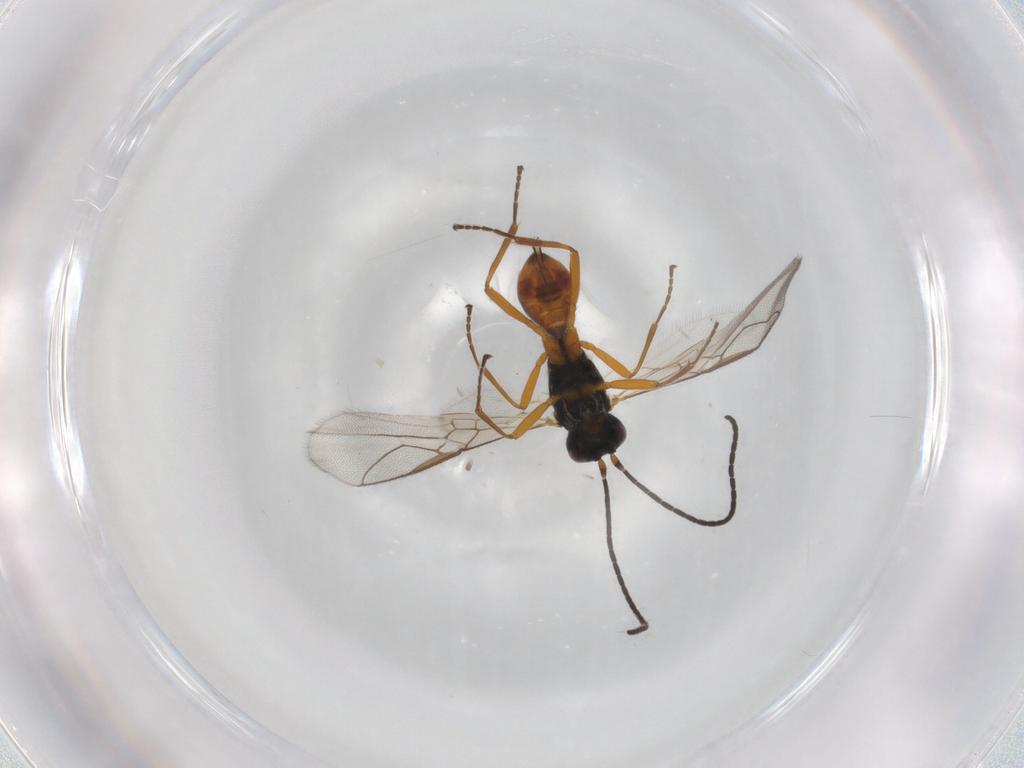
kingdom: Animalia
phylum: Arthropoda
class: Insecta
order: Hymenoptera
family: Braconidae
